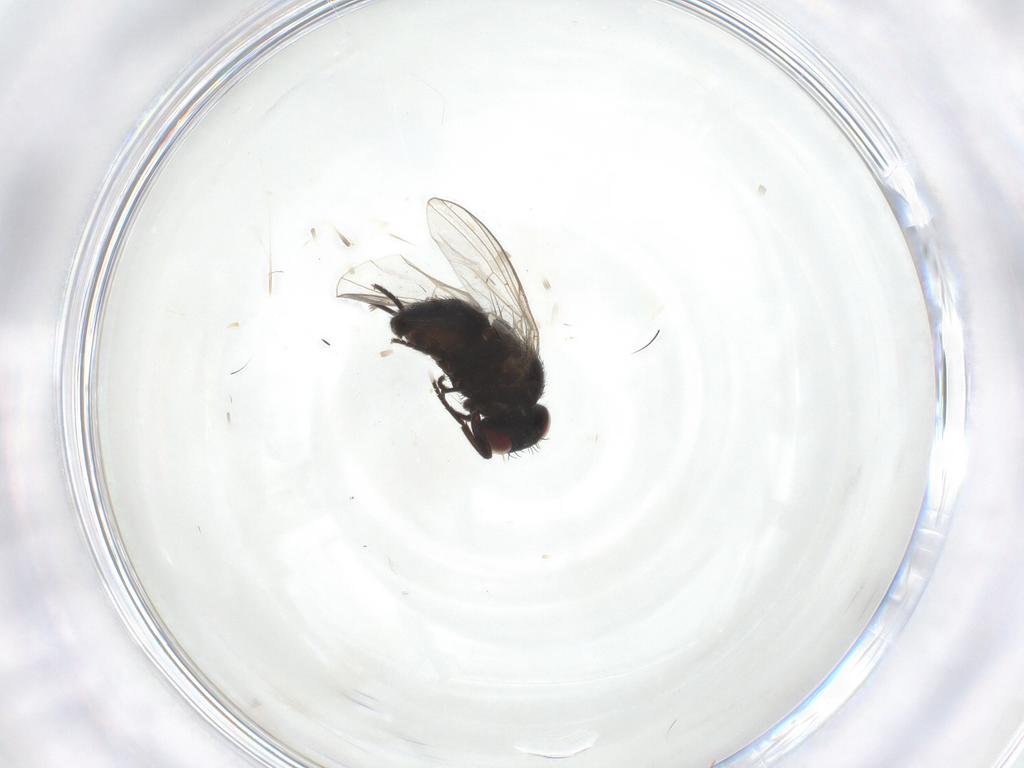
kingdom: Animalia
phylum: Arthropoda
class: Insecta
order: Diptera
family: Cecidomyiidae
